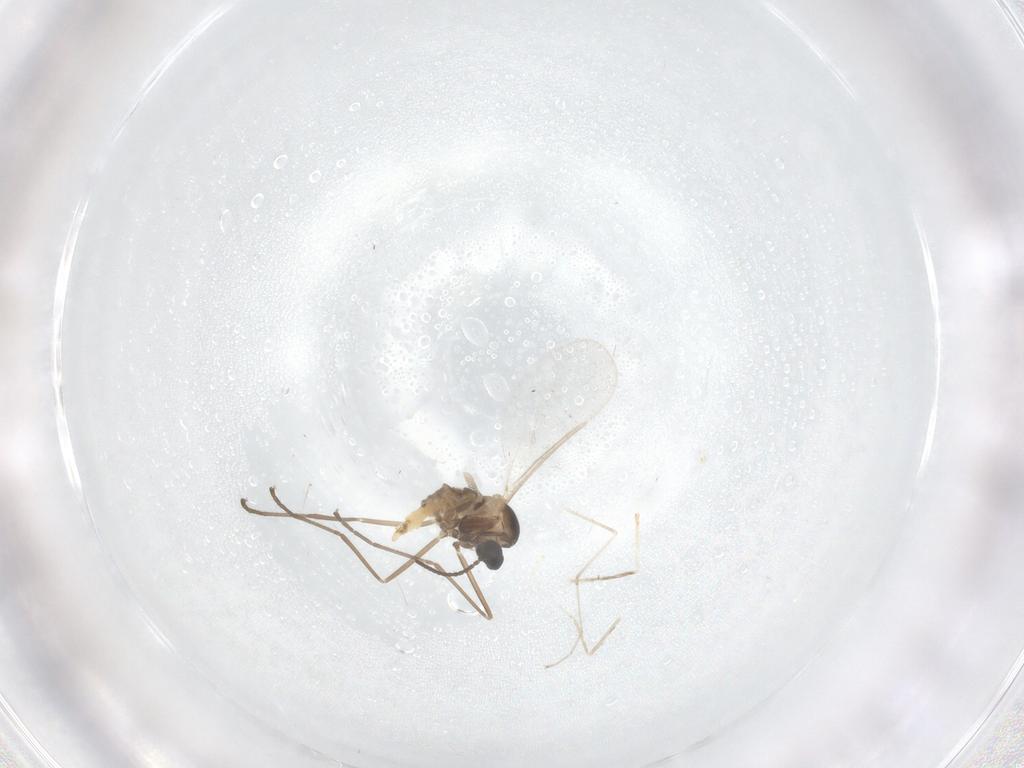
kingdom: Animalia
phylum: Arthropoda
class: Insecta
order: Diptera
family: Cecidomyiidae
